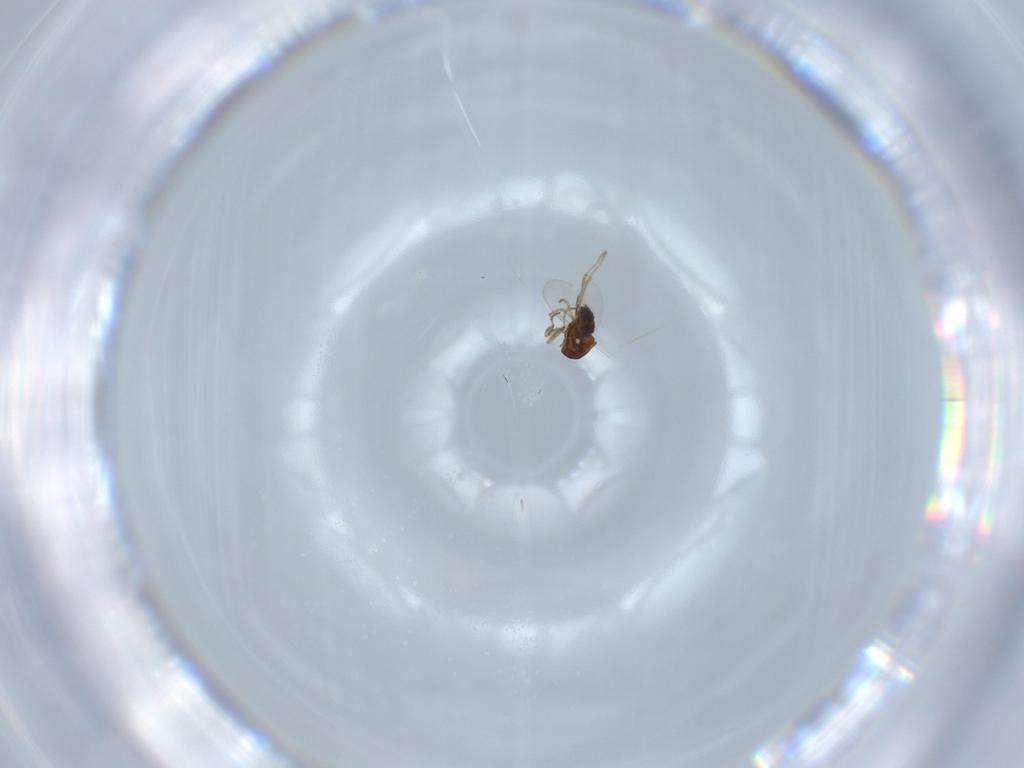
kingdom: Animalia
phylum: Arthropoda
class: Insecta
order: Diptera
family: Ceratopogonidae
